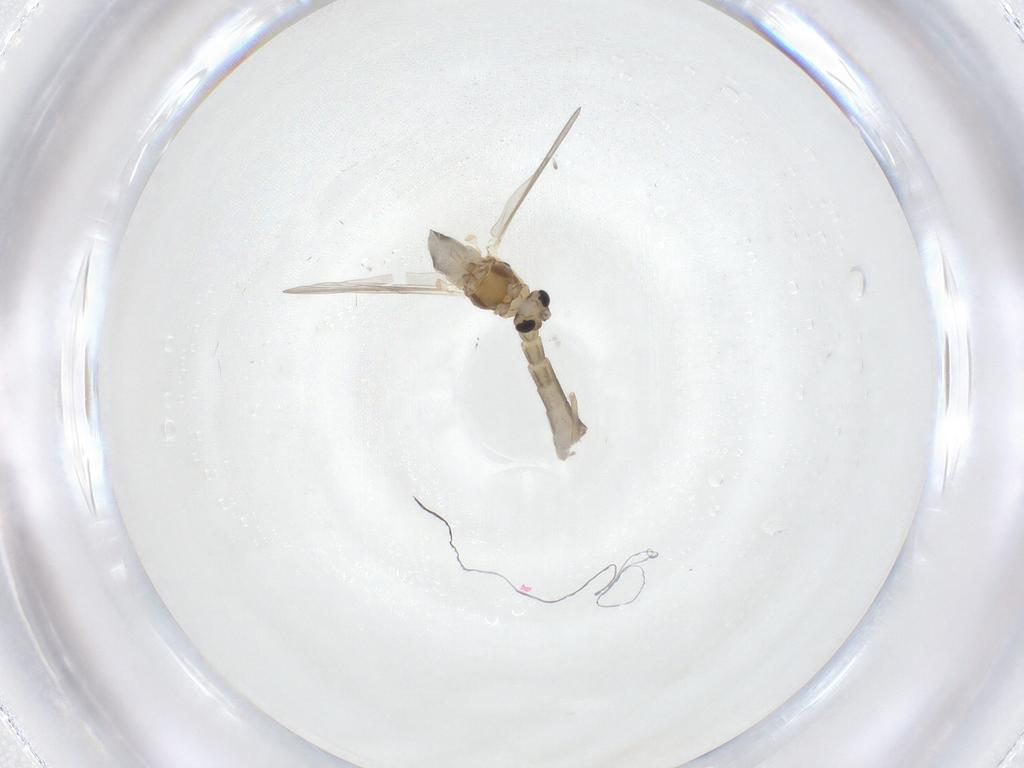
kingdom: Animalia
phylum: Arthropoda
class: Insecta
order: Diptera
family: Chironomidae
